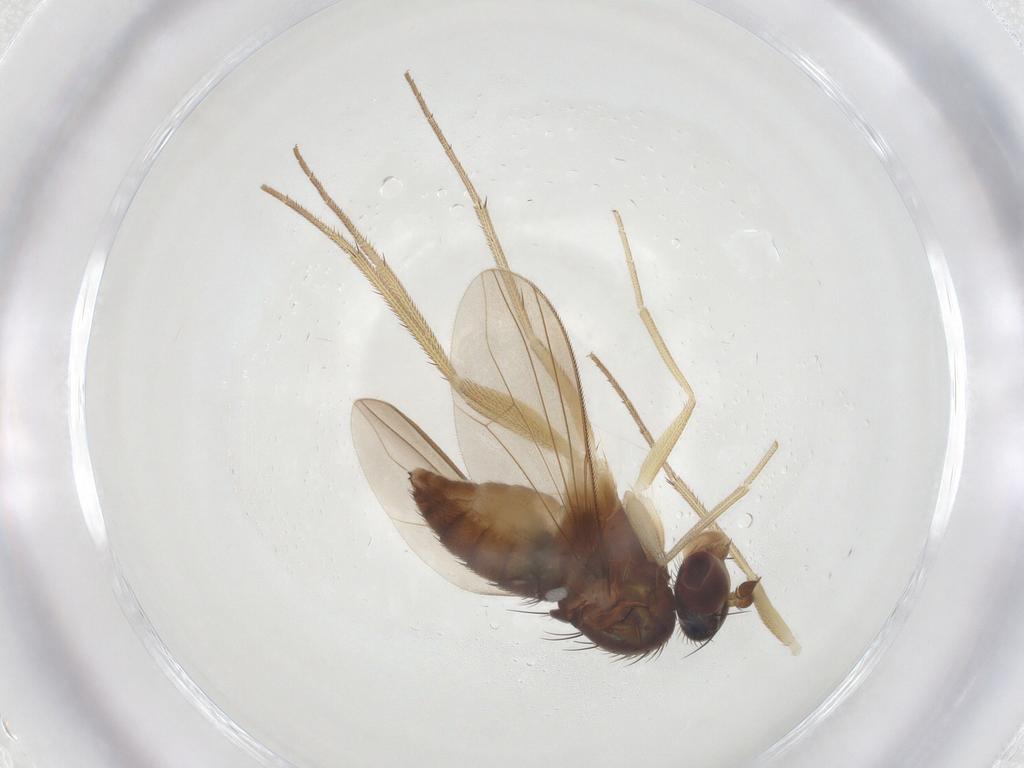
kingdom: Animalia
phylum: Arthropoda
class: Insecta
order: Diptera
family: Dolichopodidae
